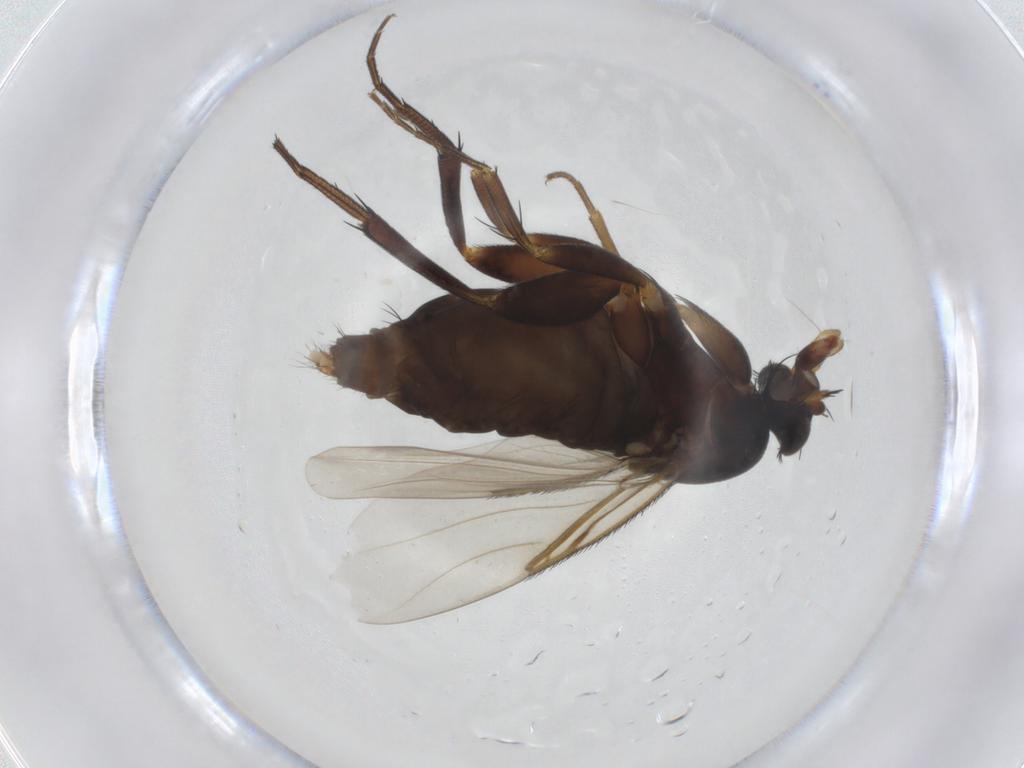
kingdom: Animalia
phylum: Arthropoda
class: Insecta
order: Diptera
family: Phoridae
